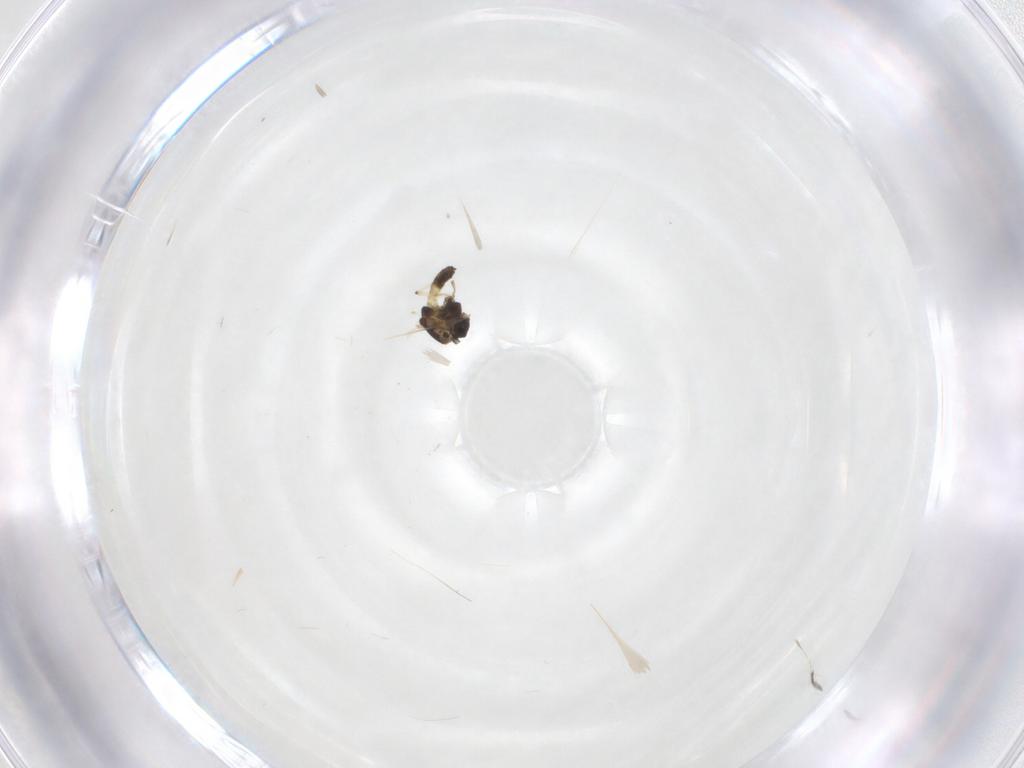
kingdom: Animalia
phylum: Arthropoda
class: Insecta
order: Diptera
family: Chironomidae
